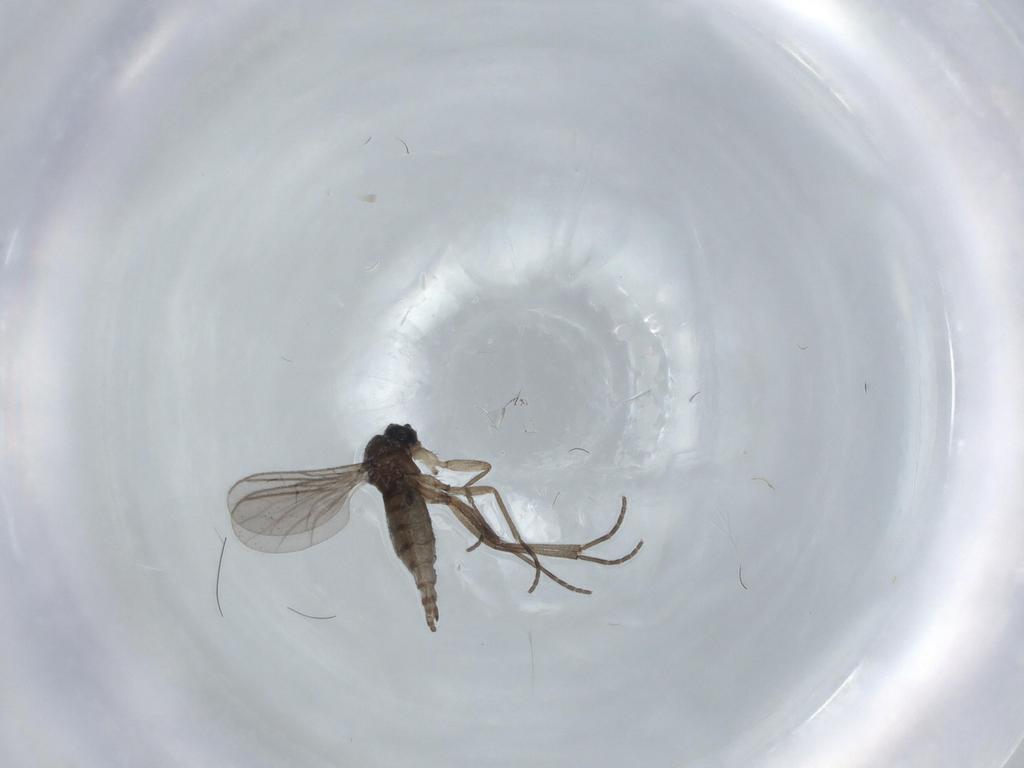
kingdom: Animalia
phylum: Arthropoda
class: Insecta
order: Diptera
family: Sciaridae
